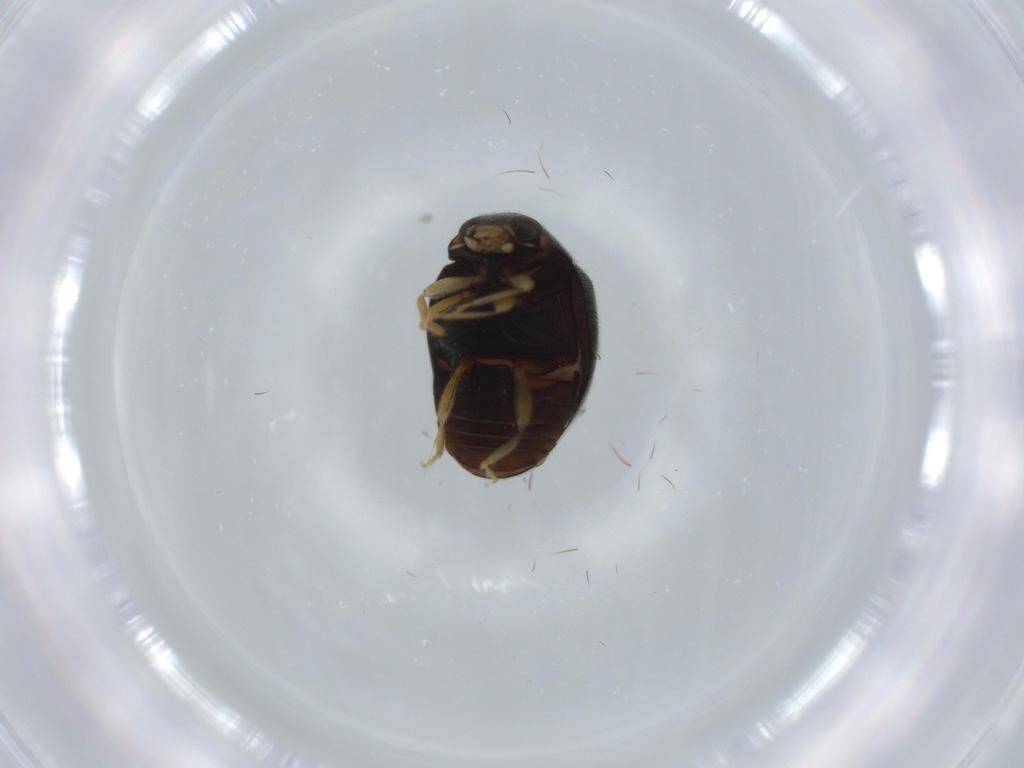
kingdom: Animalia
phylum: Arthropoda
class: Insecta
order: Coleoptera
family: Coccinellidae
